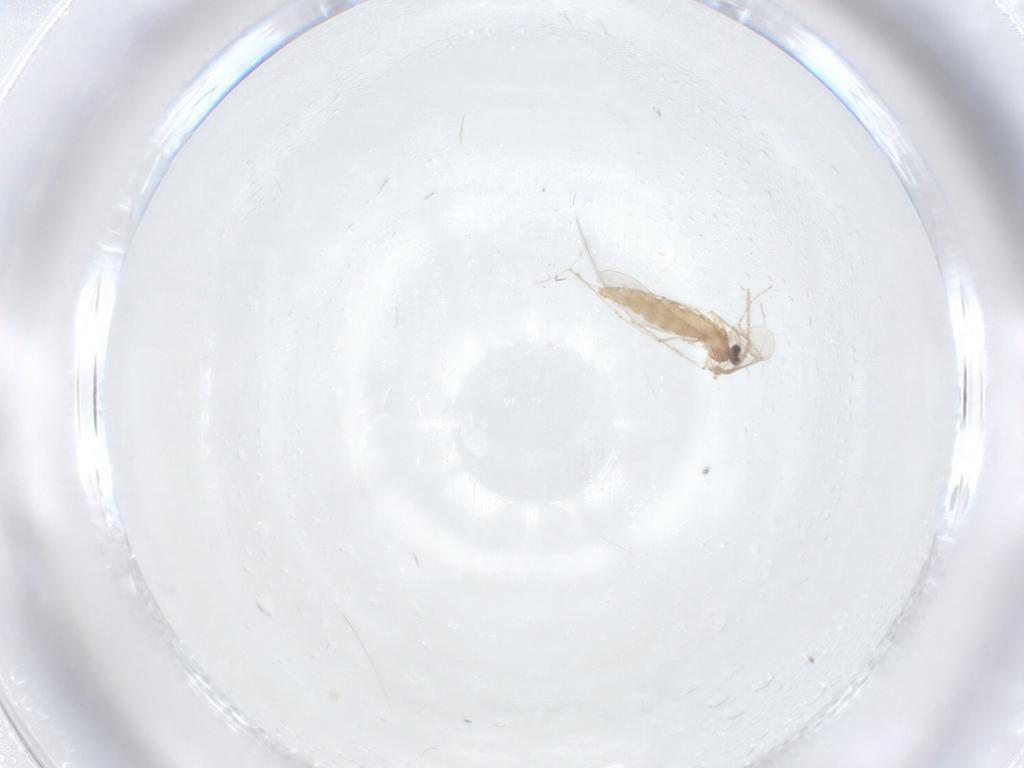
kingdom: Animalia
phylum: Arthropoda
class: Insecta
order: Diptera
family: Cecidomyiidae
